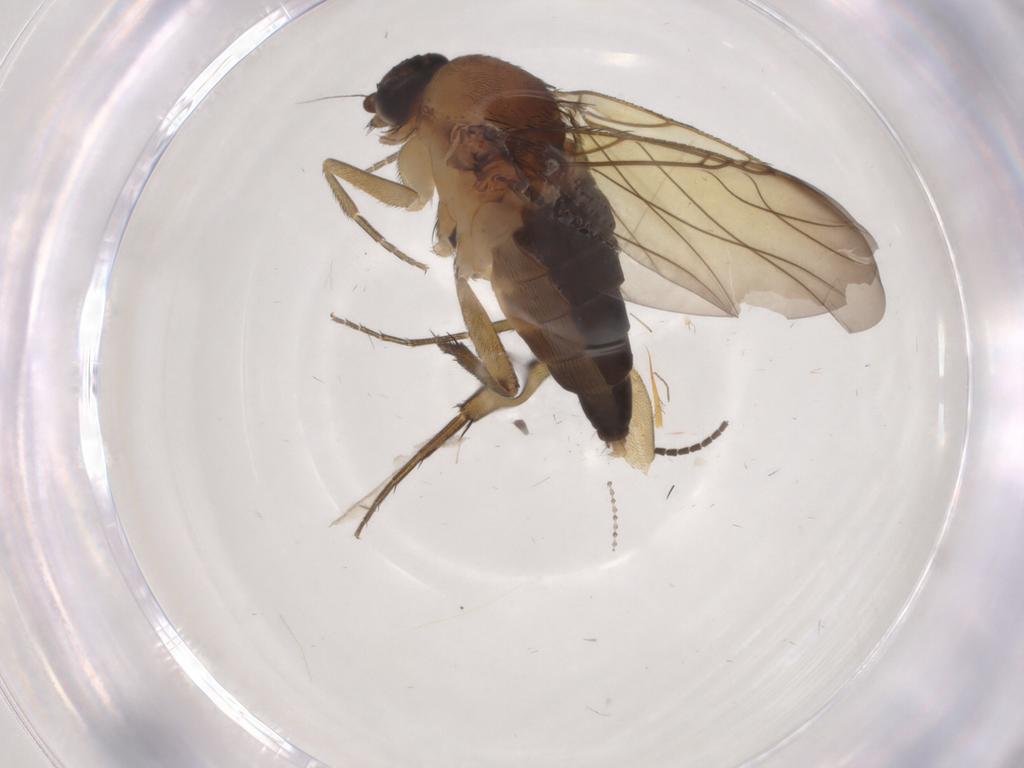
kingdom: Animalia
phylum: Arthropoda
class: Insecta
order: Diptera
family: Phoridae
